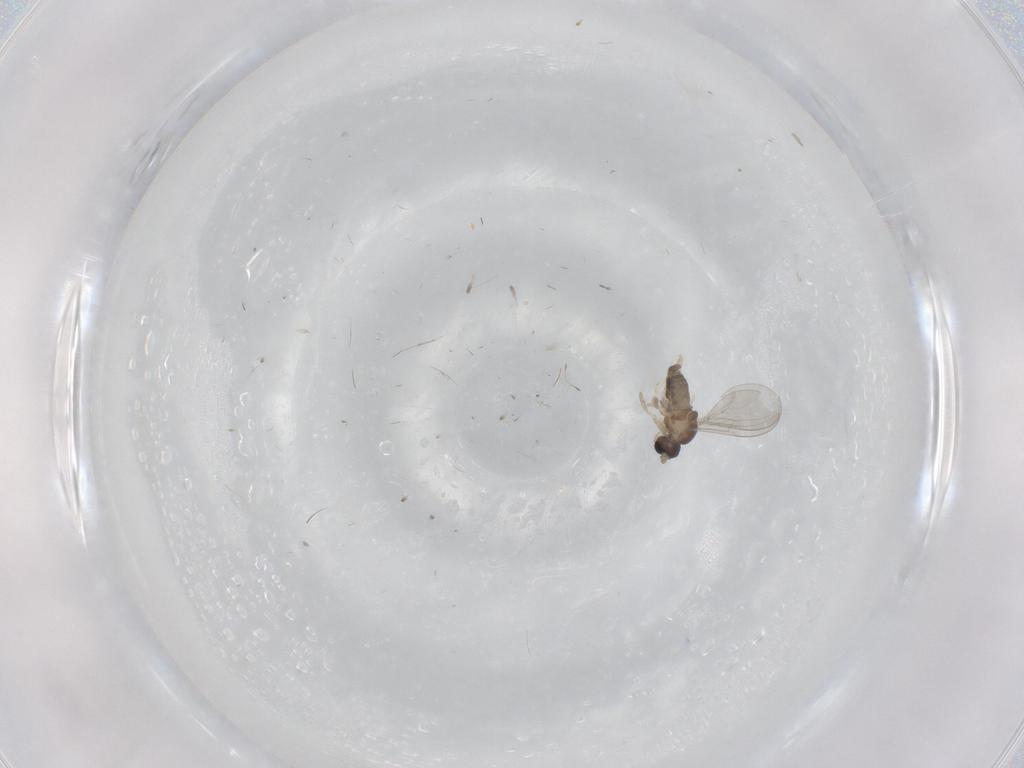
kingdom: Animalia
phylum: Arthropoda
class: Insecta
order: Diptera
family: Cecidomyiidae
